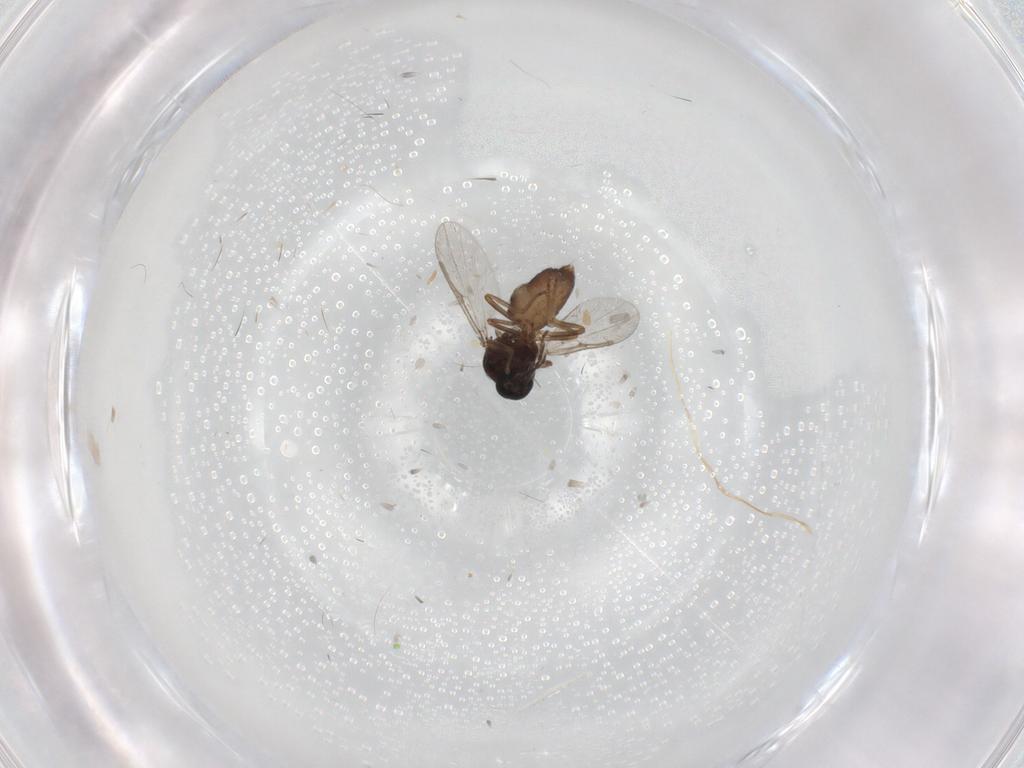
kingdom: Animalia
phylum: Arthropoda
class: Insecta
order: Diptera
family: Ceratopogonidae
